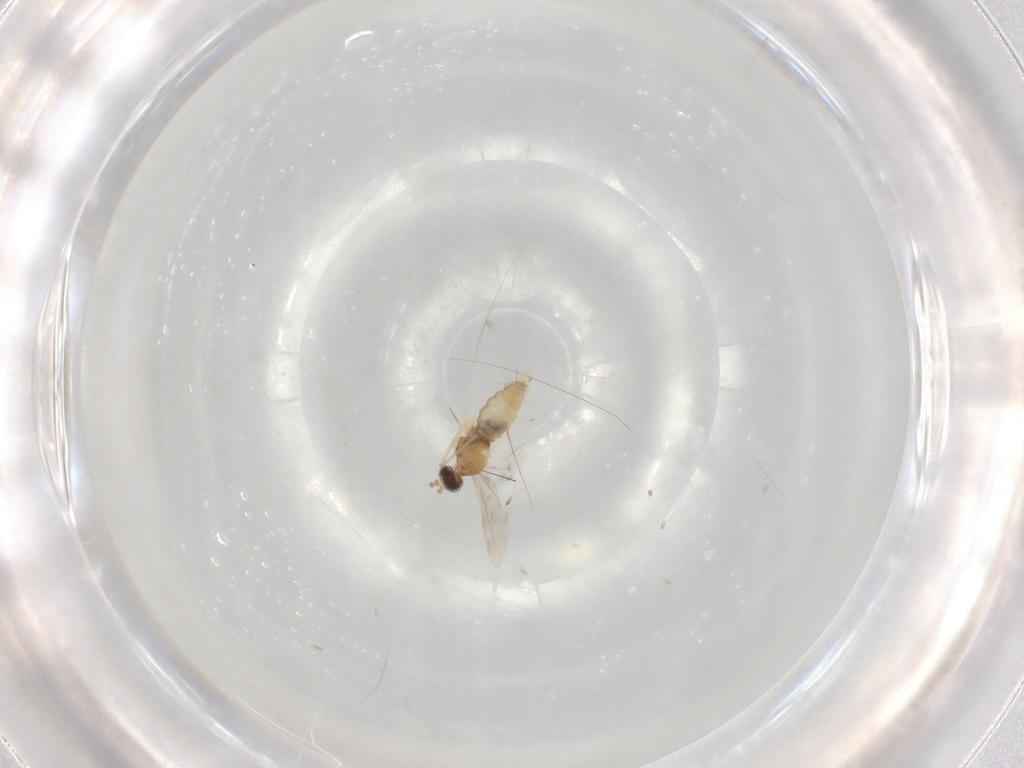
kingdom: Animalia
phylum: Arthropoda
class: Insecta
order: Diptera
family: Cecidomyiidae
